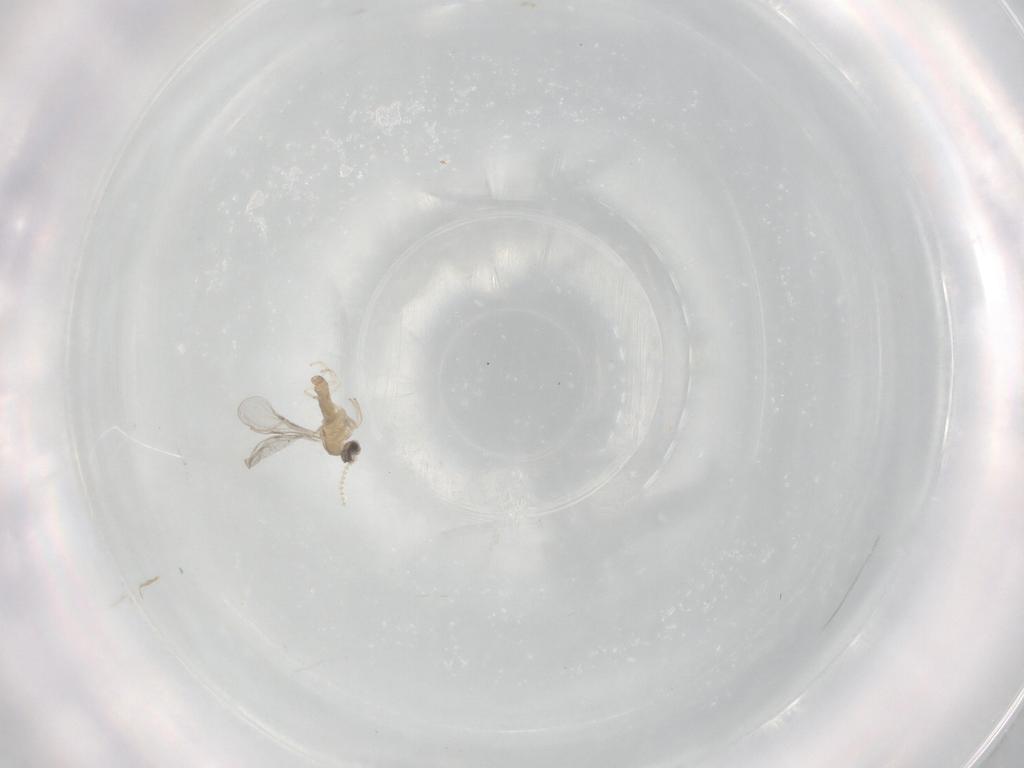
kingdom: Animalia
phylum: Arthropoda
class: Insecta
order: Diptera
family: Cecidomyiidae
